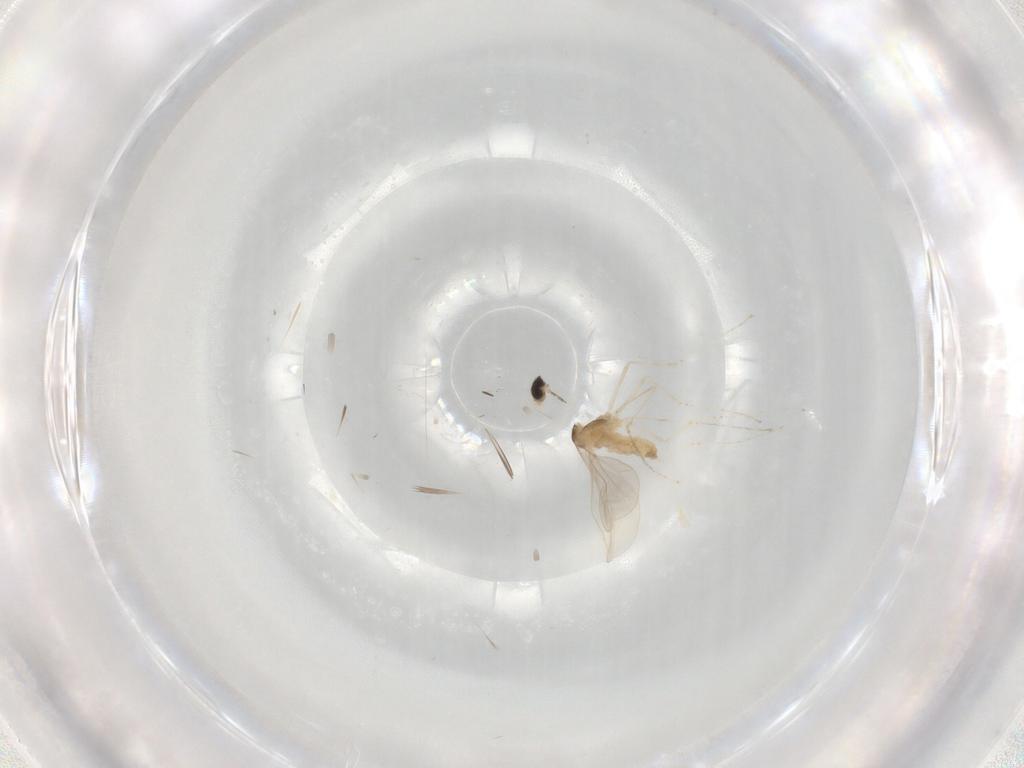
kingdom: Animalia
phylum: Arthropoda
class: Insecta
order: Diptera
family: Cecidomyiidae
